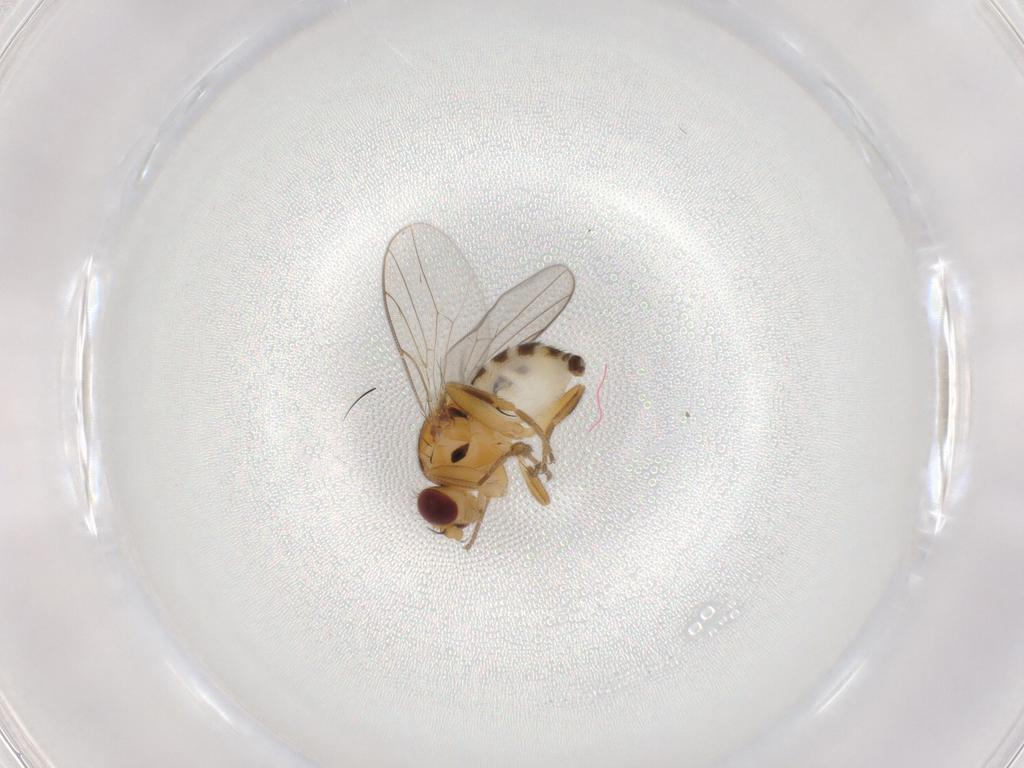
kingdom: Animalia
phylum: Arthropoda
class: Insecta
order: Diptera
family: Chloropidae
